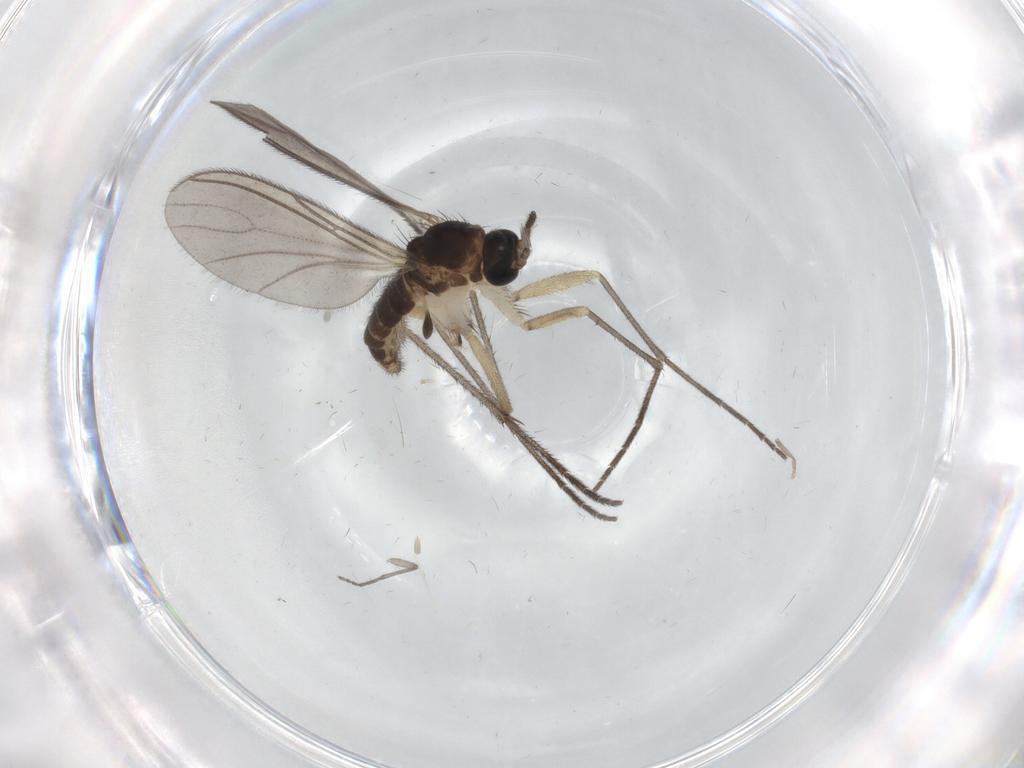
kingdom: Animalia
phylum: Arthropoda
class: Insecta
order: Diptera
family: Sciaridae
